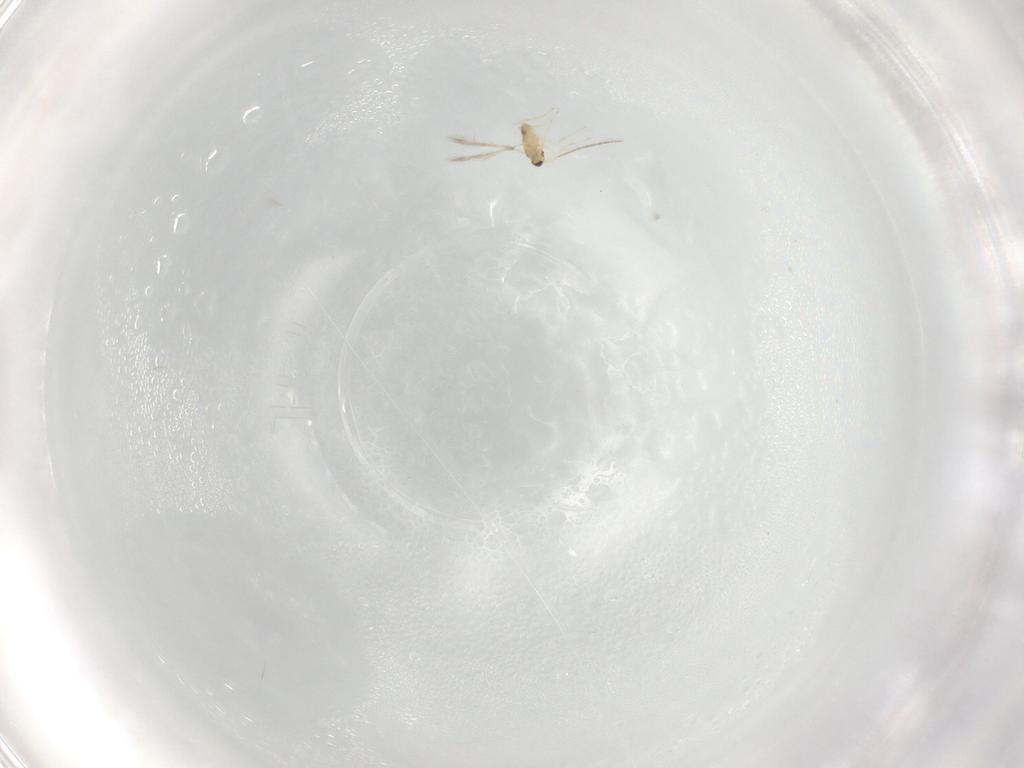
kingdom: Animalia
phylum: Arthropoda
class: Insecta
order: Hymenoptera
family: Mymaridae
